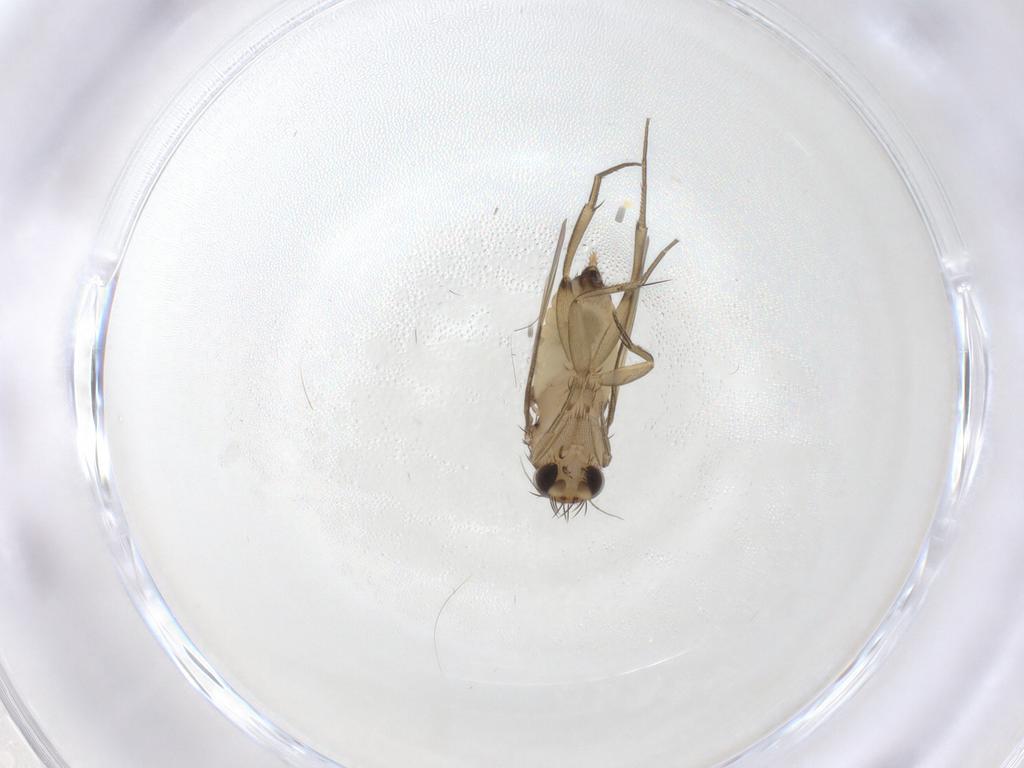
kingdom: Animalia
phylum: Arthropoda
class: Insecta
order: Diptera
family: Phoridae
